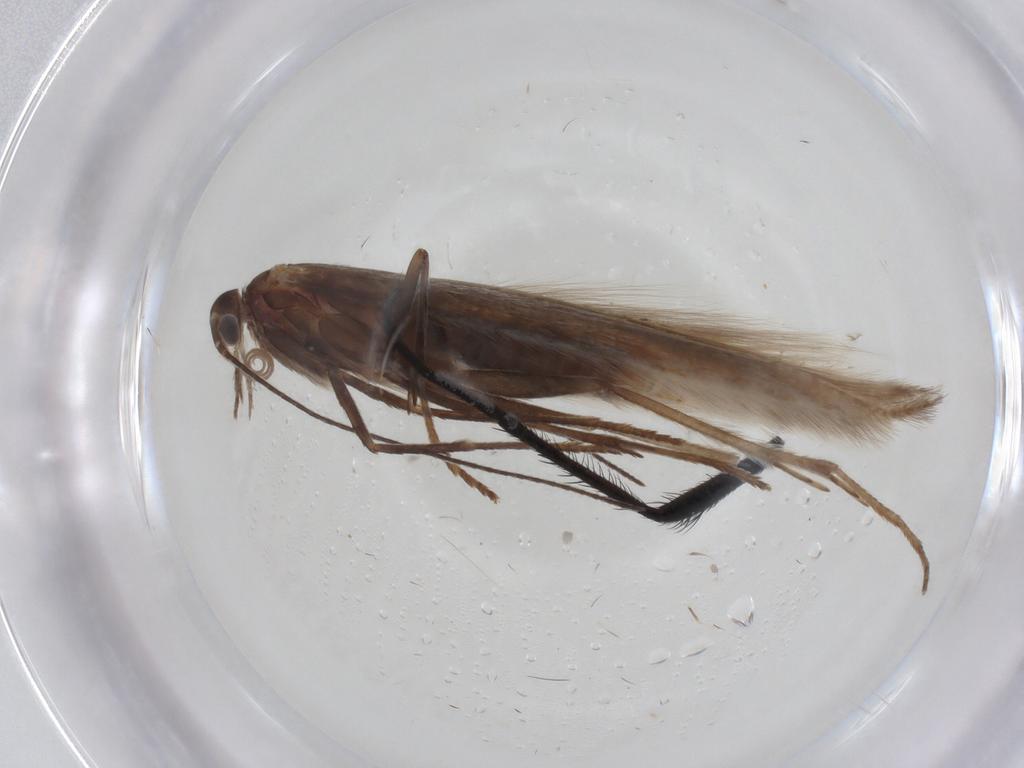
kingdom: Animalia
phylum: Arthropoda
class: Insecta
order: Lepidoptera
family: Coleophoridae
